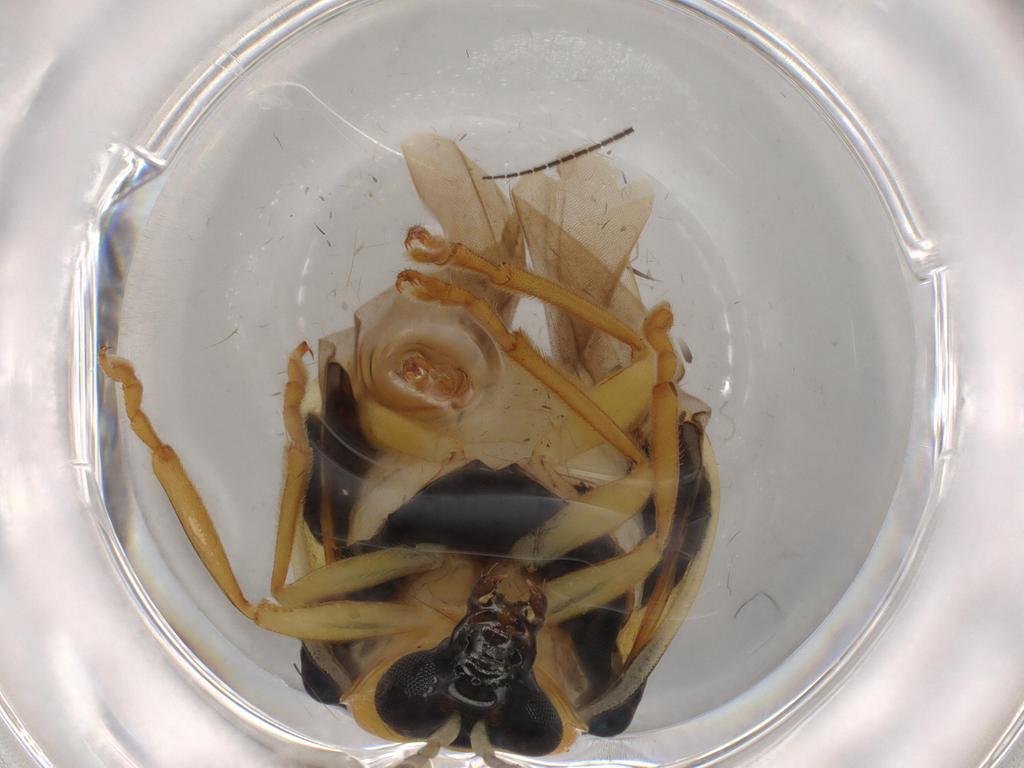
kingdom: Animalia
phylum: Arthropoda
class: Insecta
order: Coleoptera
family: Chrysomelidae
